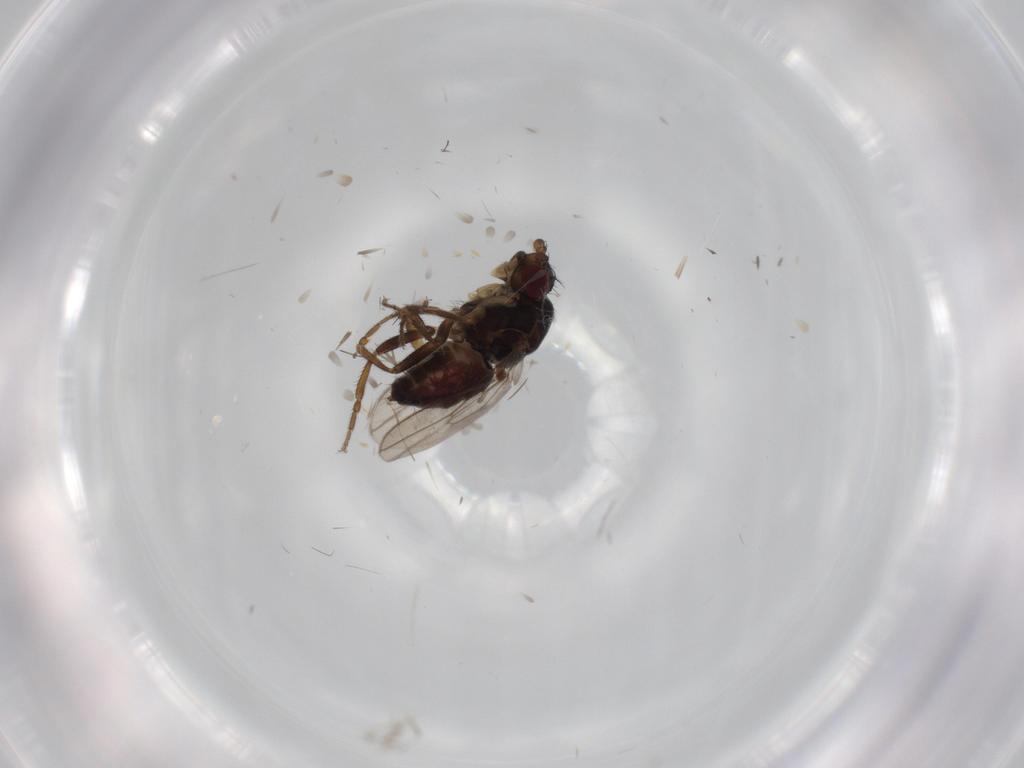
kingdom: Animalia
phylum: Arthropoda
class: Insecta
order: Diptera
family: Sphaeroceridae
